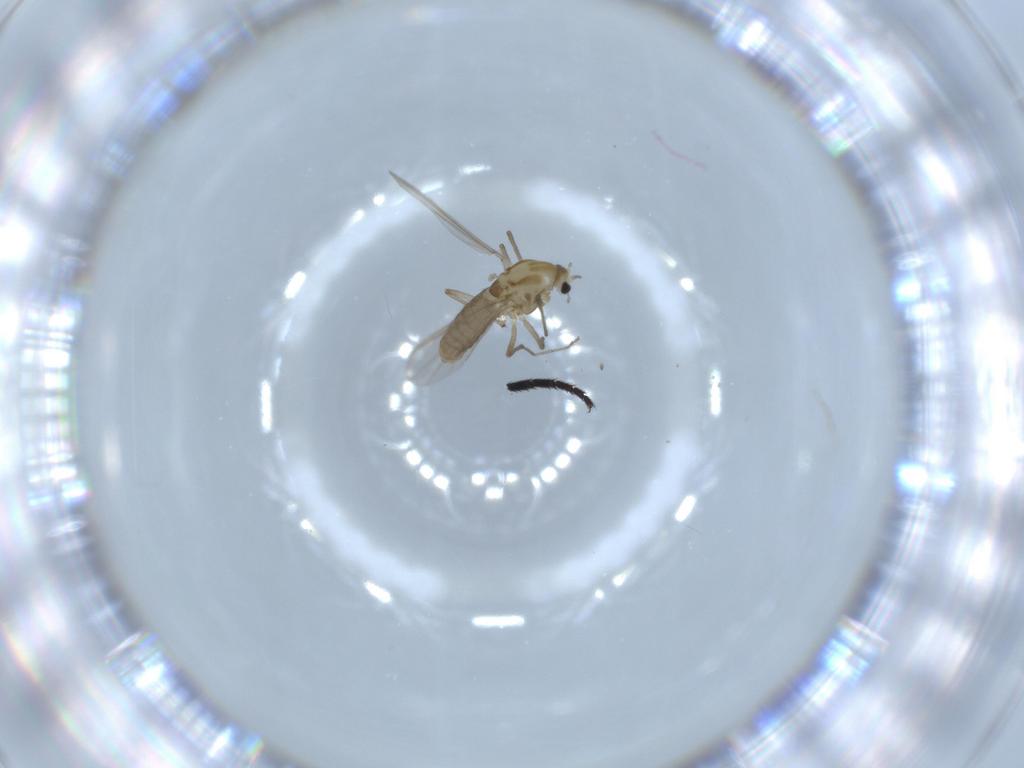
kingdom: Animalia
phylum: Arthropoda
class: Insecta
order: Diptera
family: Chironomidae
